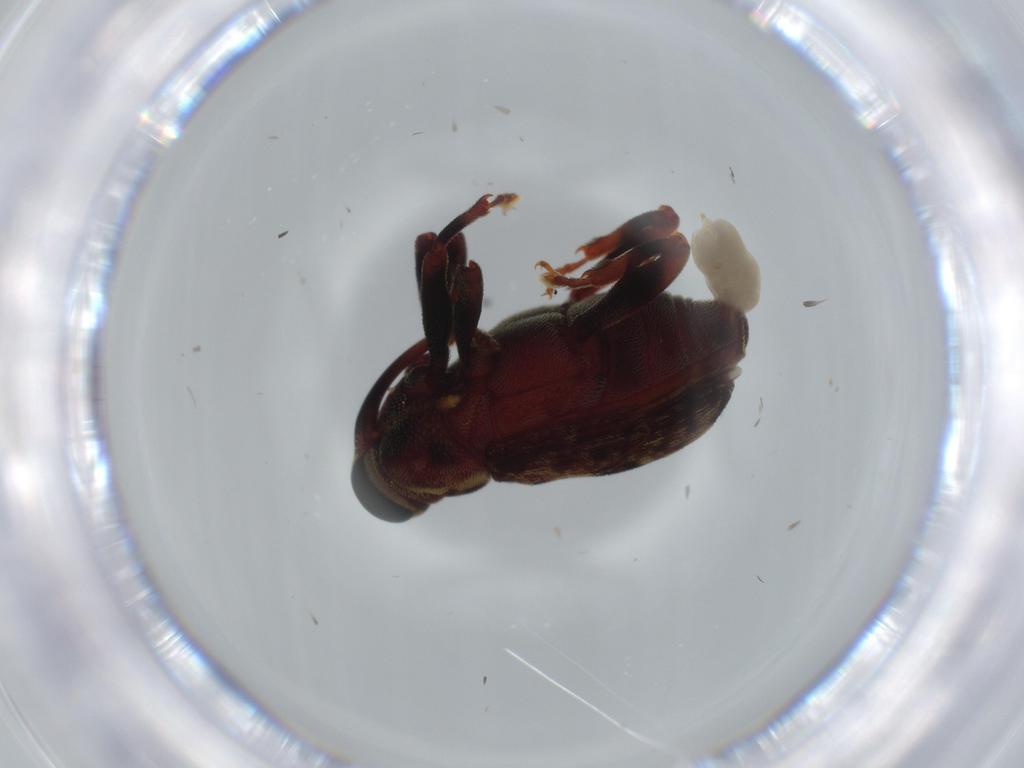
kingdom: Animalia
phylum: Arthropoda
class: Insecta
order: Coleoptera
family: Curculionidae
